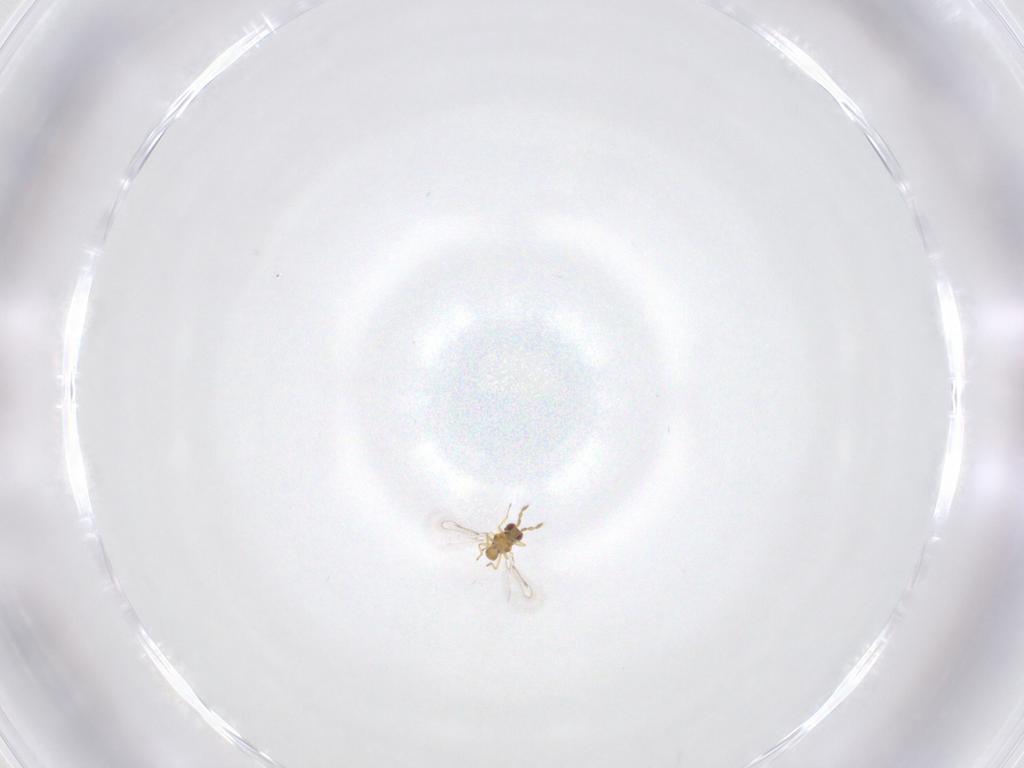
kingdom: Animalia
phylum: Arthropoda
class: Insecta
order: Hymenoptera
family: Eulophidae
